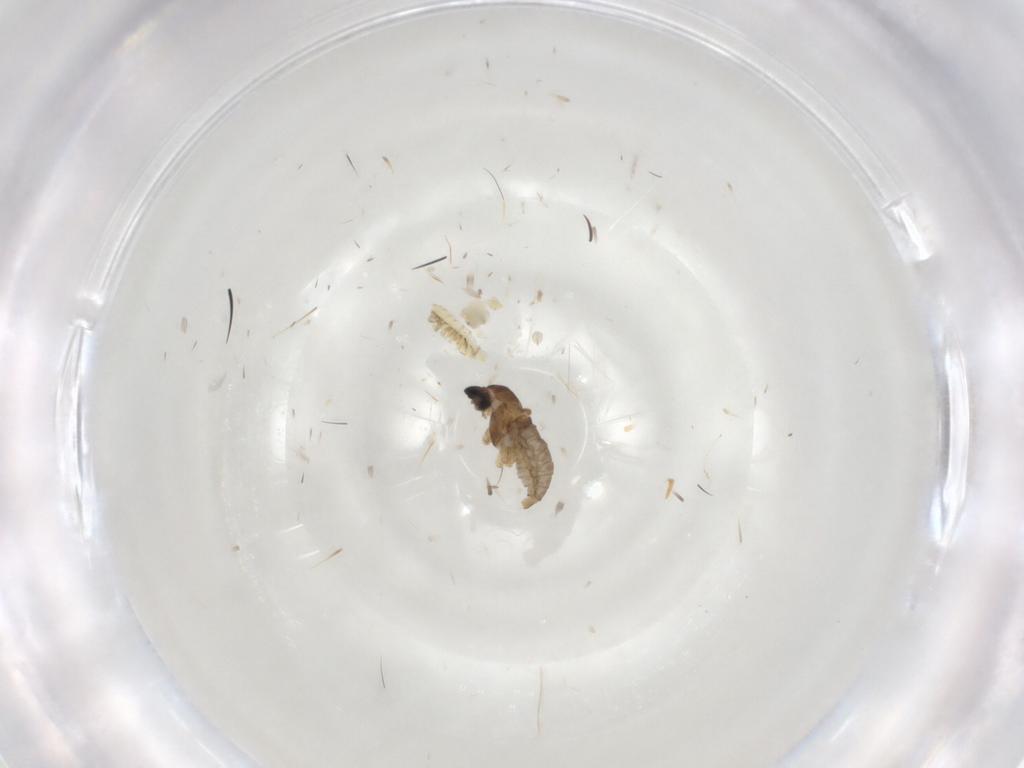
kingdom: Animalia
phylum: Arthropoda
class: Insecta
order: Diptera
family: Cecidomyiidae
